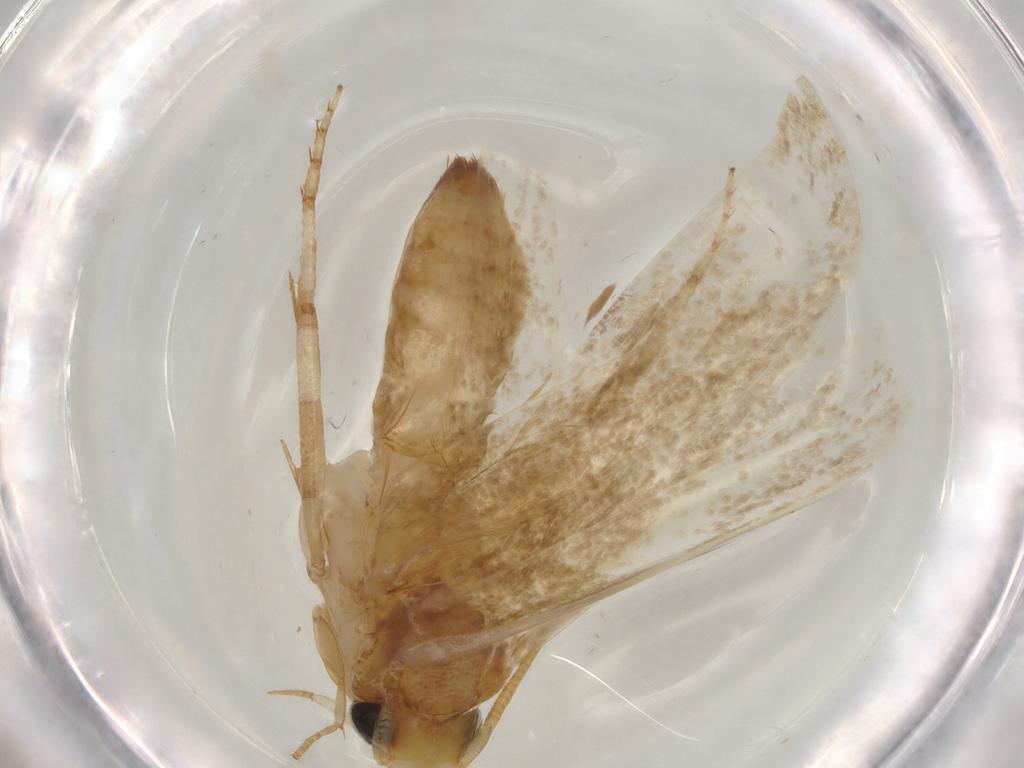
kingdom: Animalia
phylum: Arthropoda
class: Insecta
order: Lepidoptera
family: Tineidae
